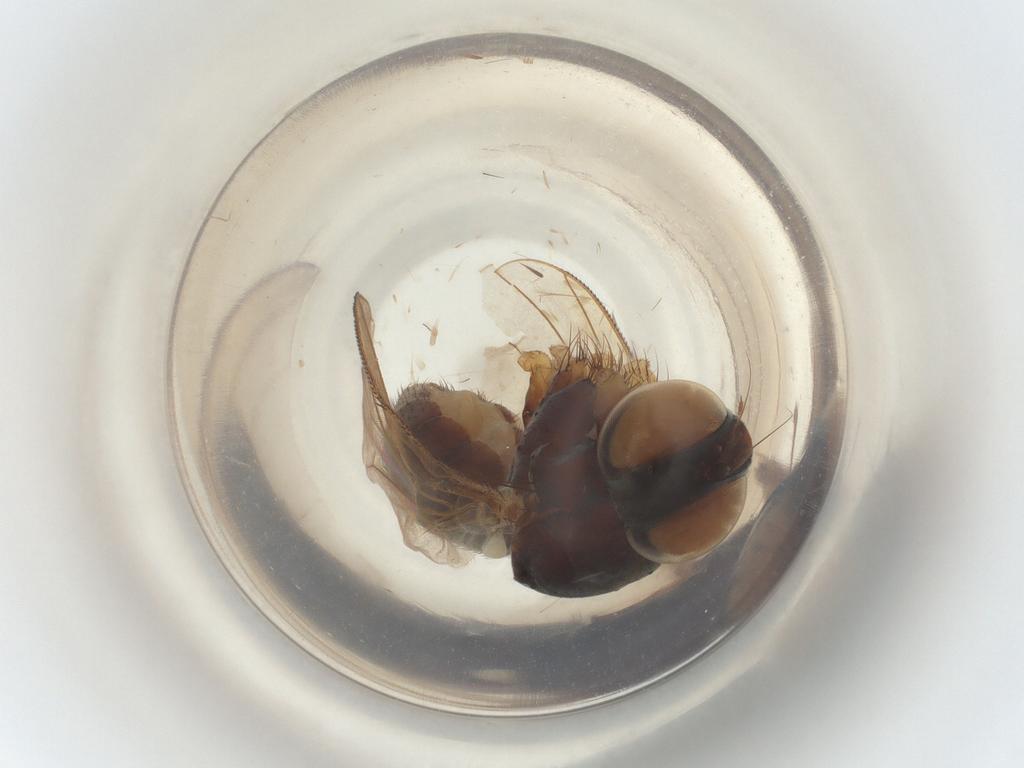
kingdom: Animalia
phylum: Arthropoda
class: Insecta
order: Diptera
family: Muscidae
